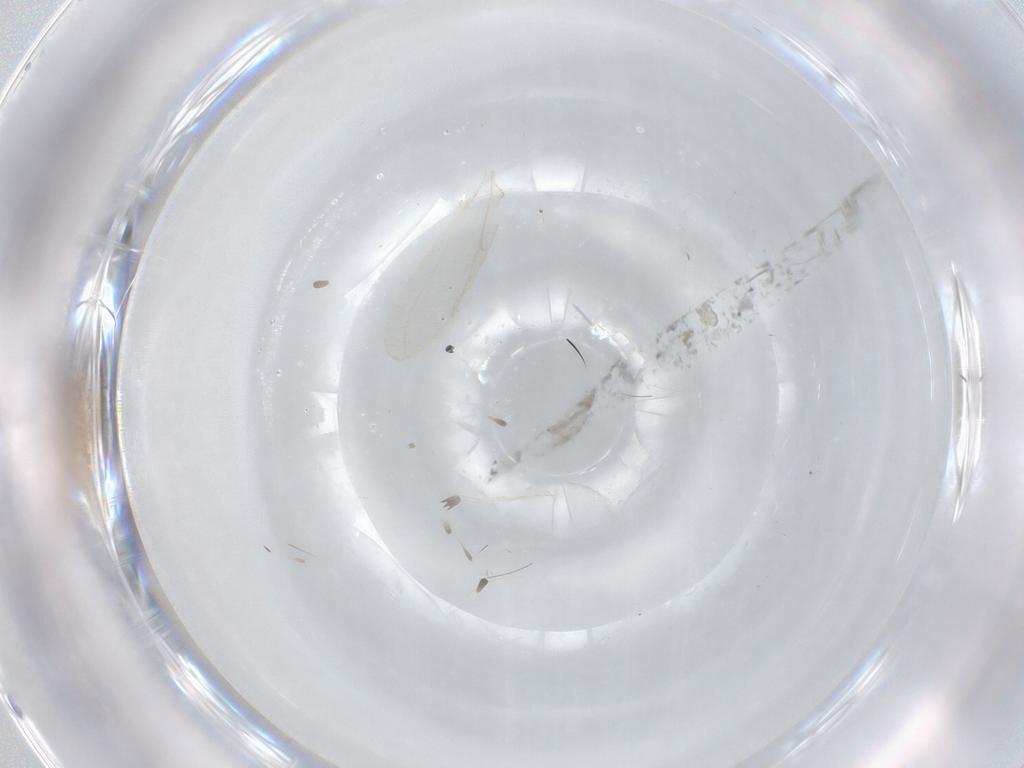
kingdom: Animalia
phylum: Arthropoda
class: Insecta
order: Diptera
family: Cecidomyiidae
